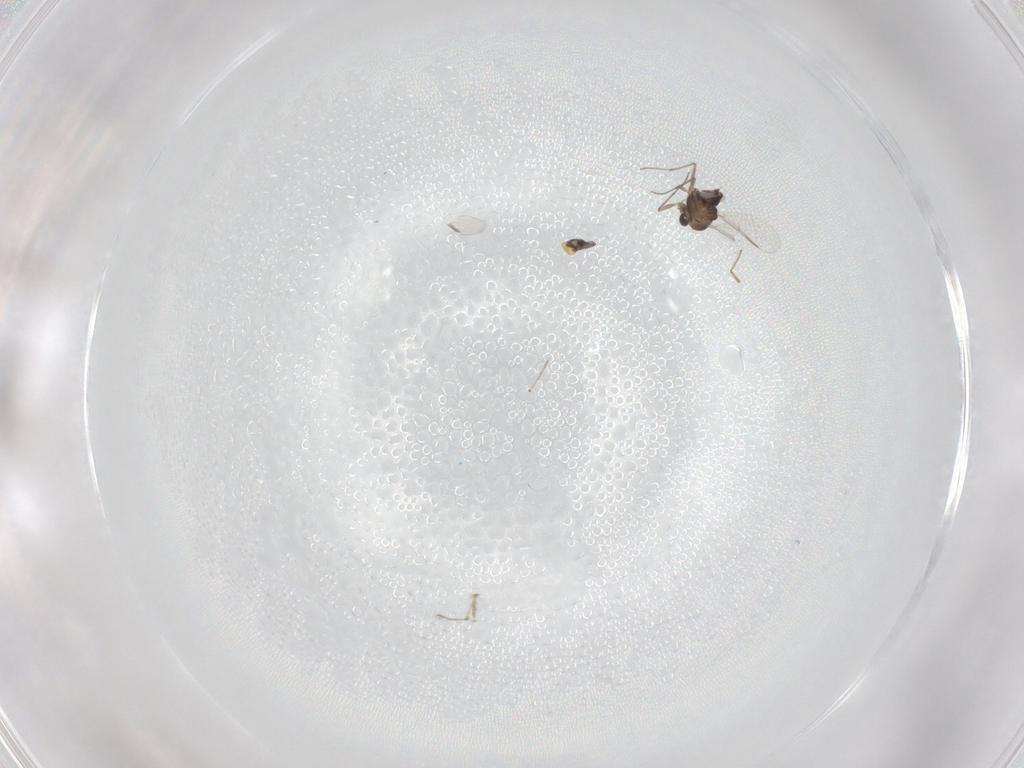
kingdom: Animalia
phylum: Arthropoda
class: Insecta
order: Diptera
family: Chironomidae
